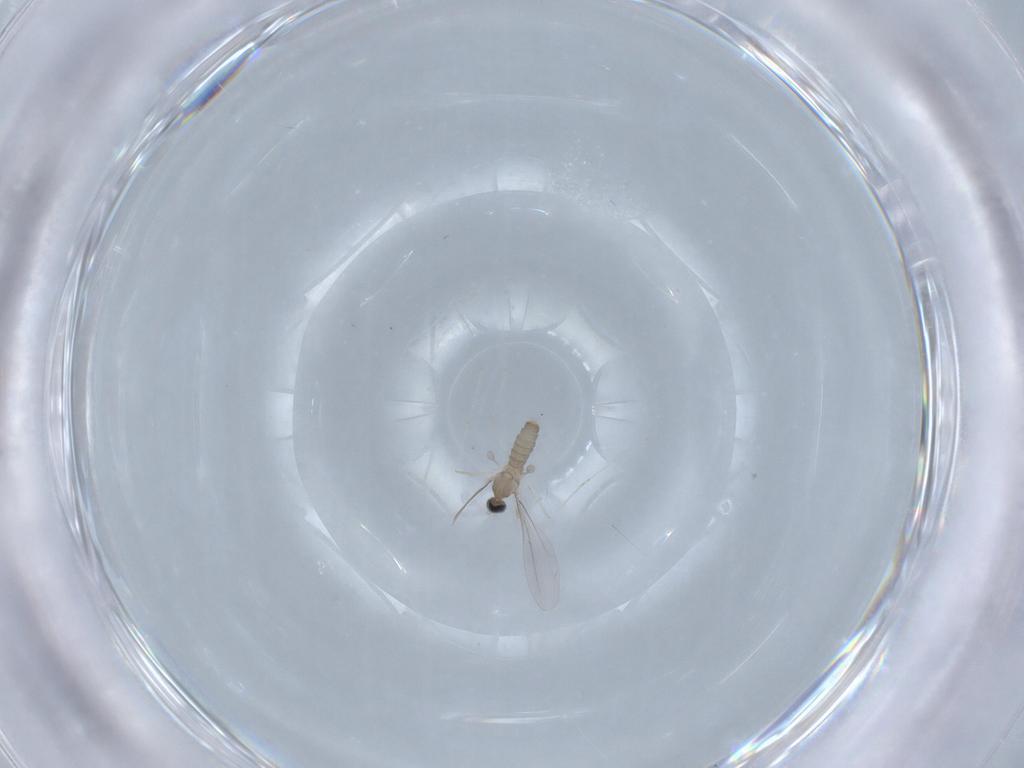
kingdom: Animalia
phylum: Arthropoda
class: Insecta
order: Diptera
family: Cecidomyiidae
